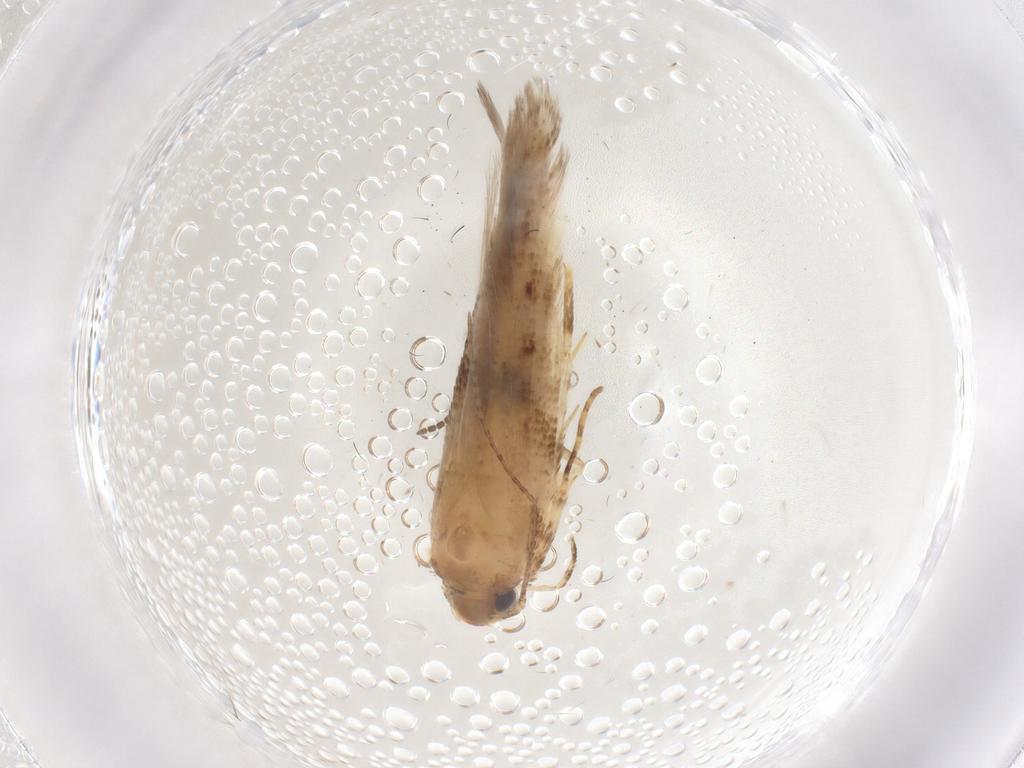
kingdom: Animalia
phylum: Arthropoda
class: Insecta
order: Lepidoptera
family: Gelechiidae
